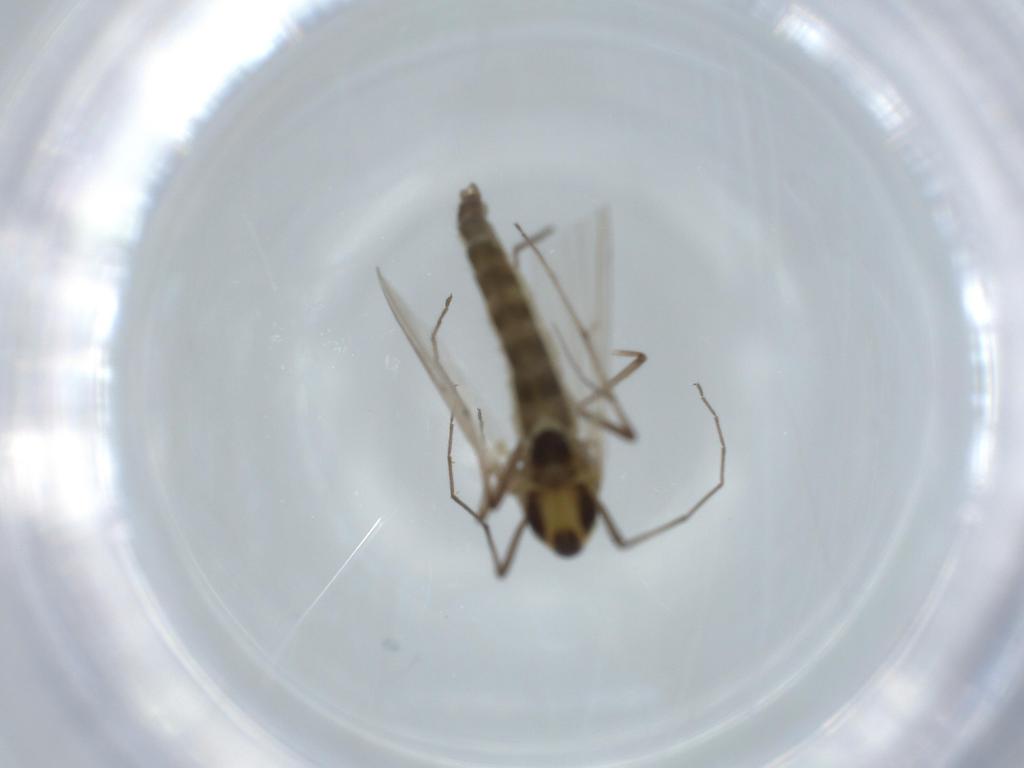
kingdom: Animalia
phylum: Arthropoda
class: Insecta
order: Diptera
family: Chironomidae
